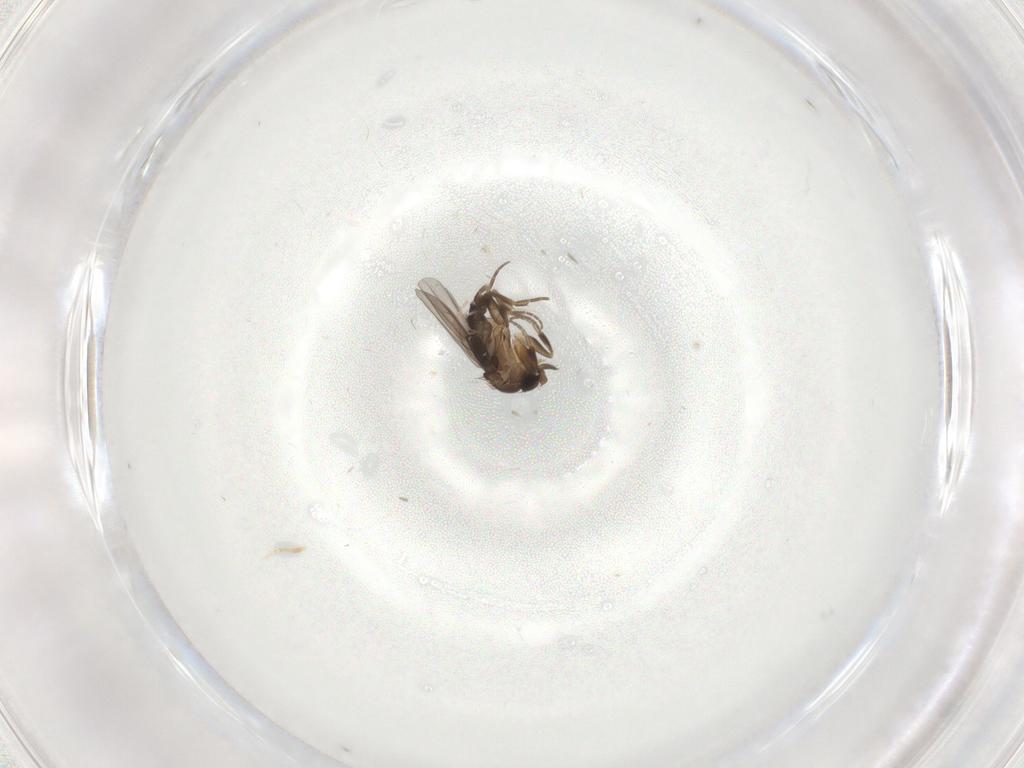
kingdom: Animalia
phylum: Arthropoda
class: Insecta
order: Diptera
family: Phoridae
